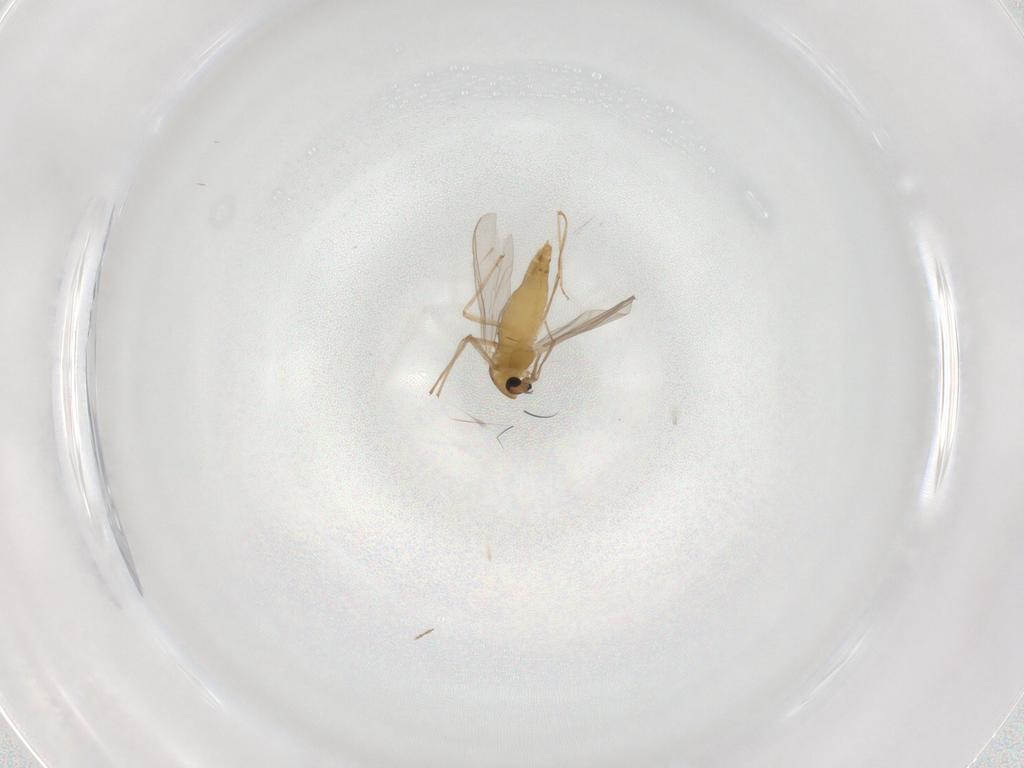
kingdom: Animalia
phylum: Arthropoda
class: Insecta
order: Diptera
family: Chironomidae
